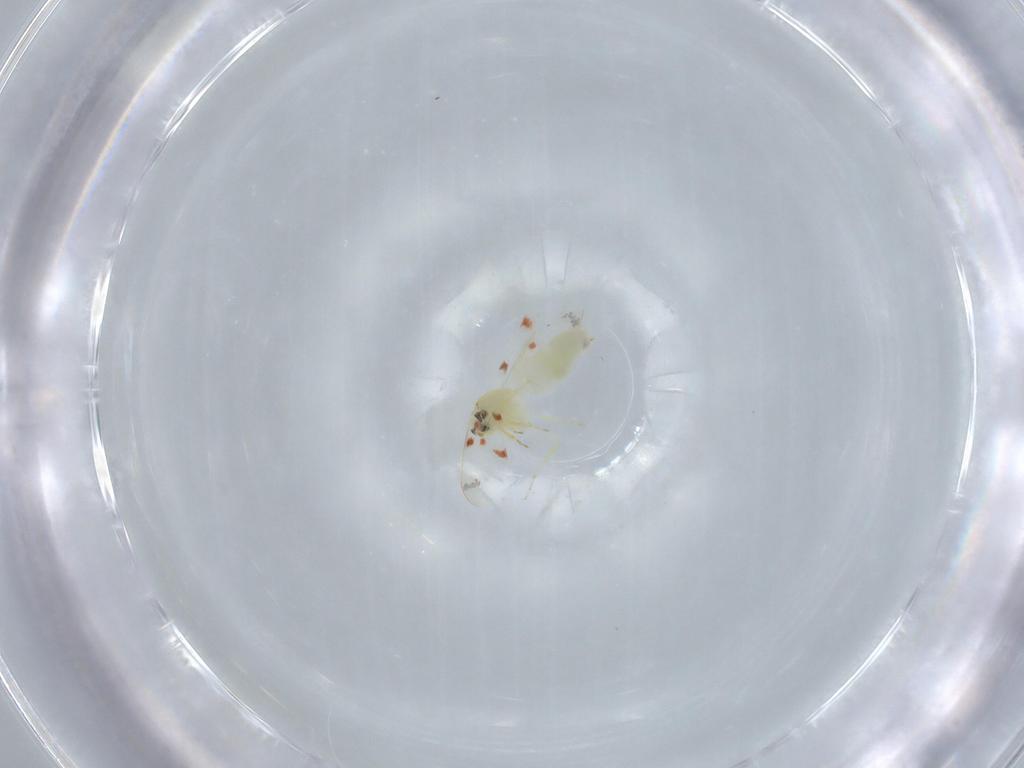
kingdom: Animalia
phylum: Arthropoda
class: Insecta
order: Hemiptera
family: Aleyrodidae
